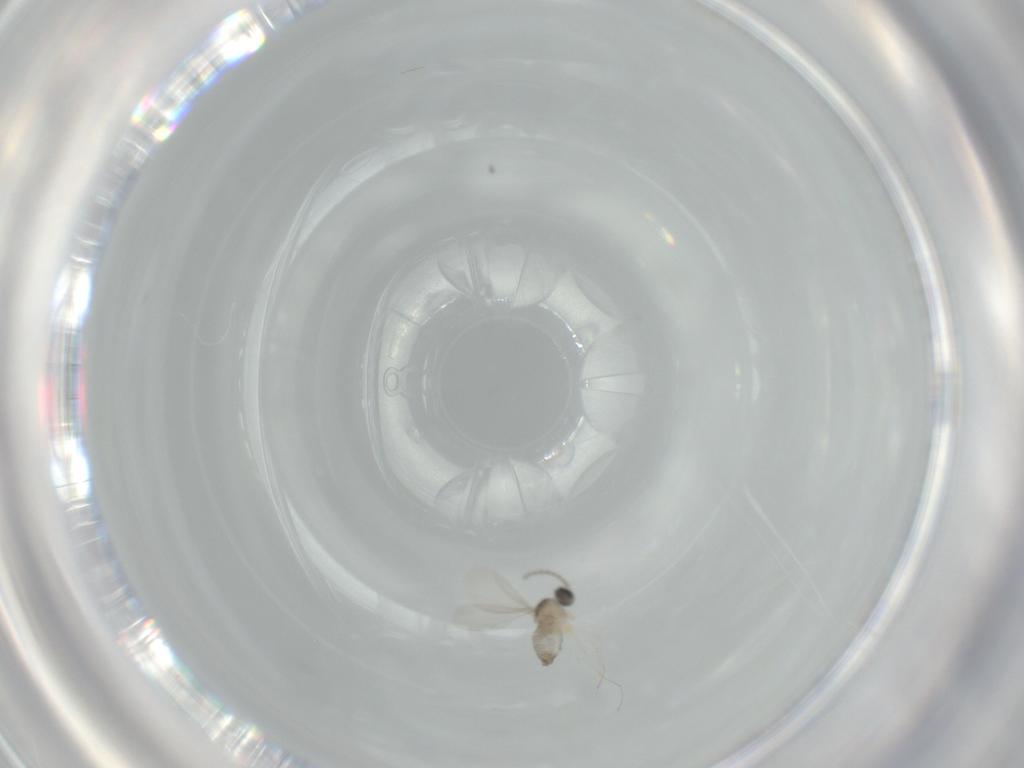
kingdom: Animalia
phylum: Arthropoda
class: Insecta
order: Diptera
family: Cecidomyiidae
